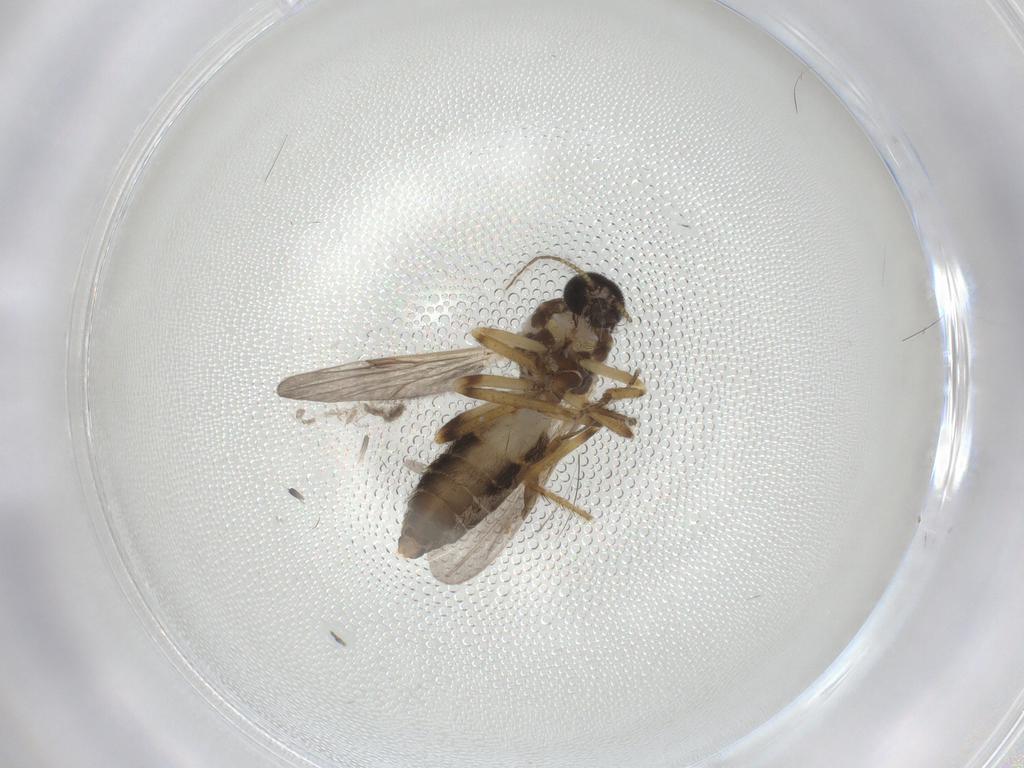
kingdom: Animalia
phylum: Arthropoda
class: Insecta
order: Diptera
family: Ceratopogonidae
